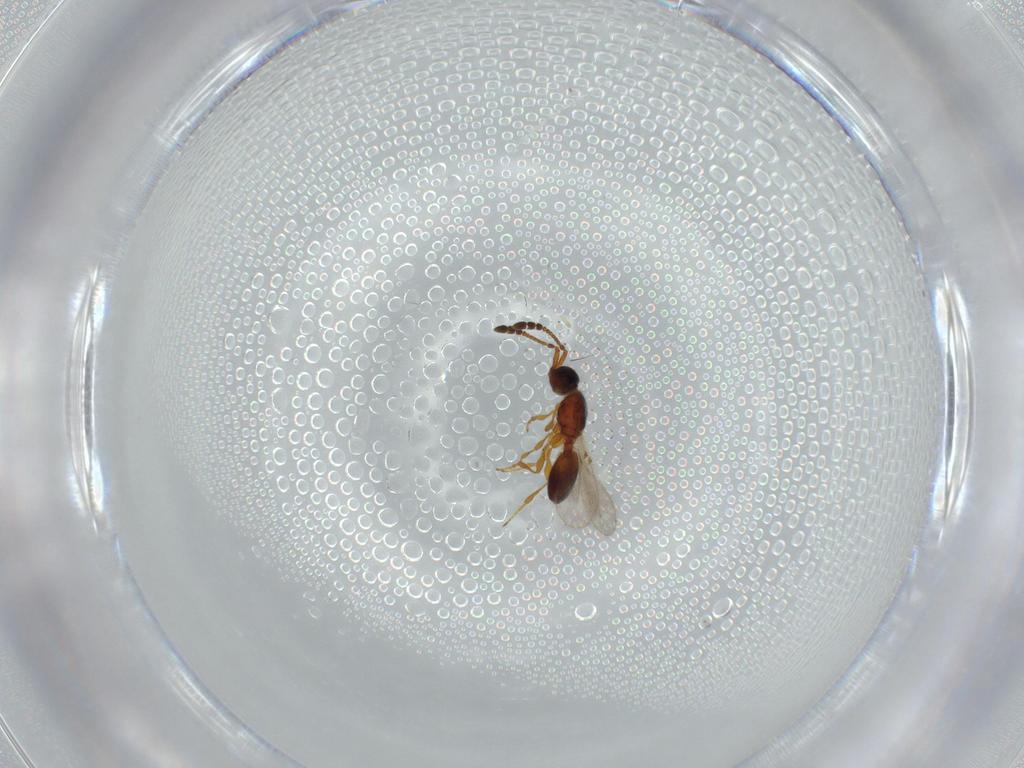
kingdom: Animalia
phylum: Arthropoda
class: Insecta
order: Hymenoptera
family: Diapriidae
